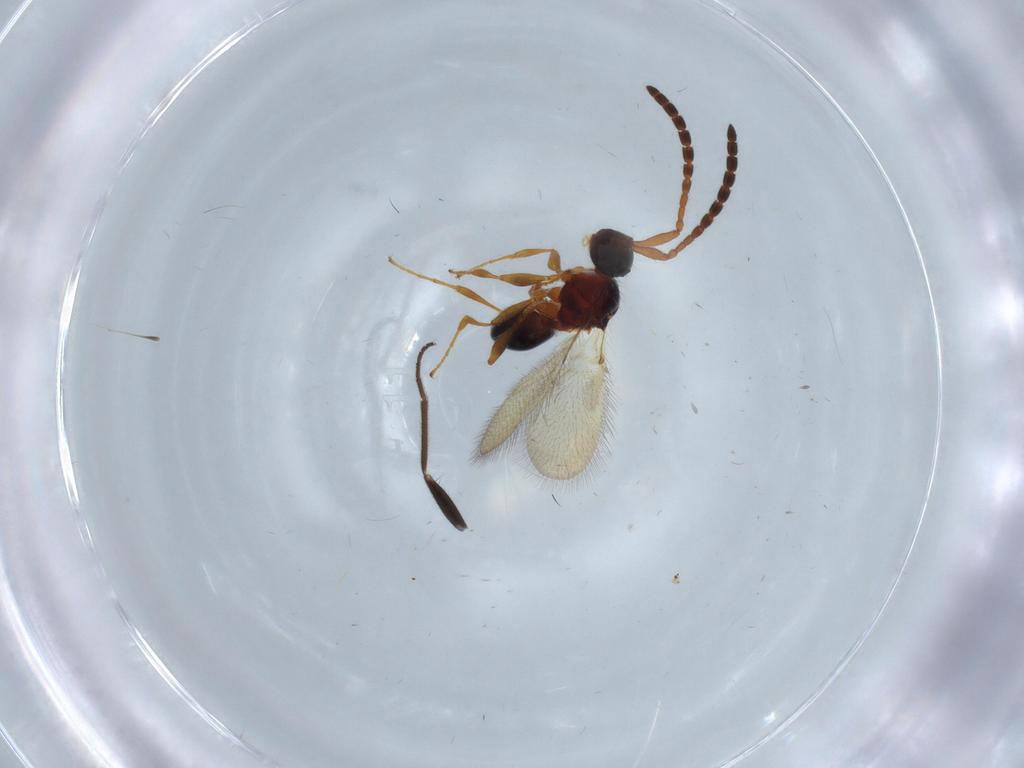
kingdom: Animalia
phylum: Arthropoda
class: Insecta
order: Hymenoptera
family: Diapriidae
